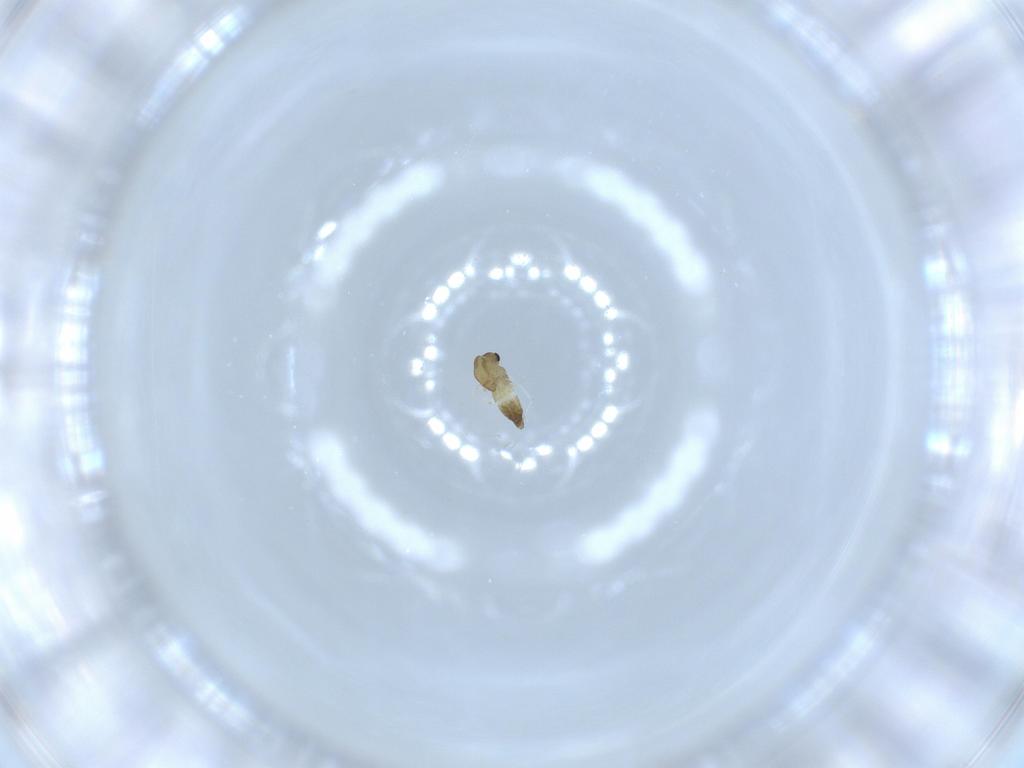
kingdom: Animalia
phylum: Arthropoda
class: Insecta
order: Diptera
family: Chironomidae
